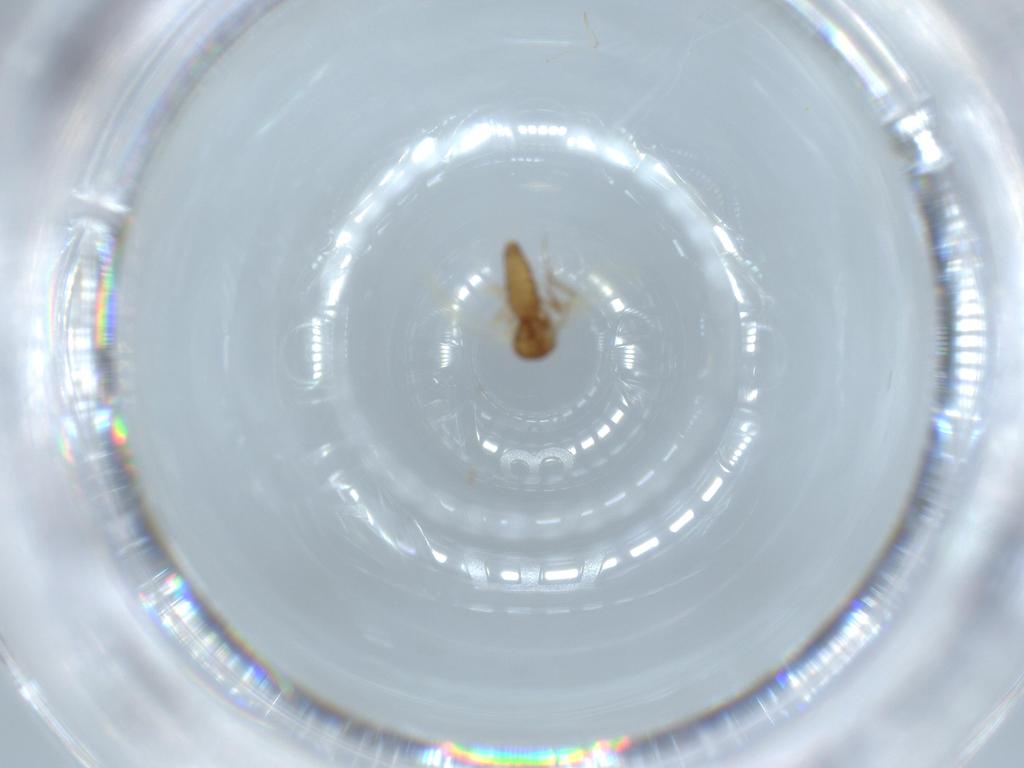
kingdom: Animalia
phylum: Arthropoda
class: Insecta
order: Diptera
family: Ceratopogonidae
